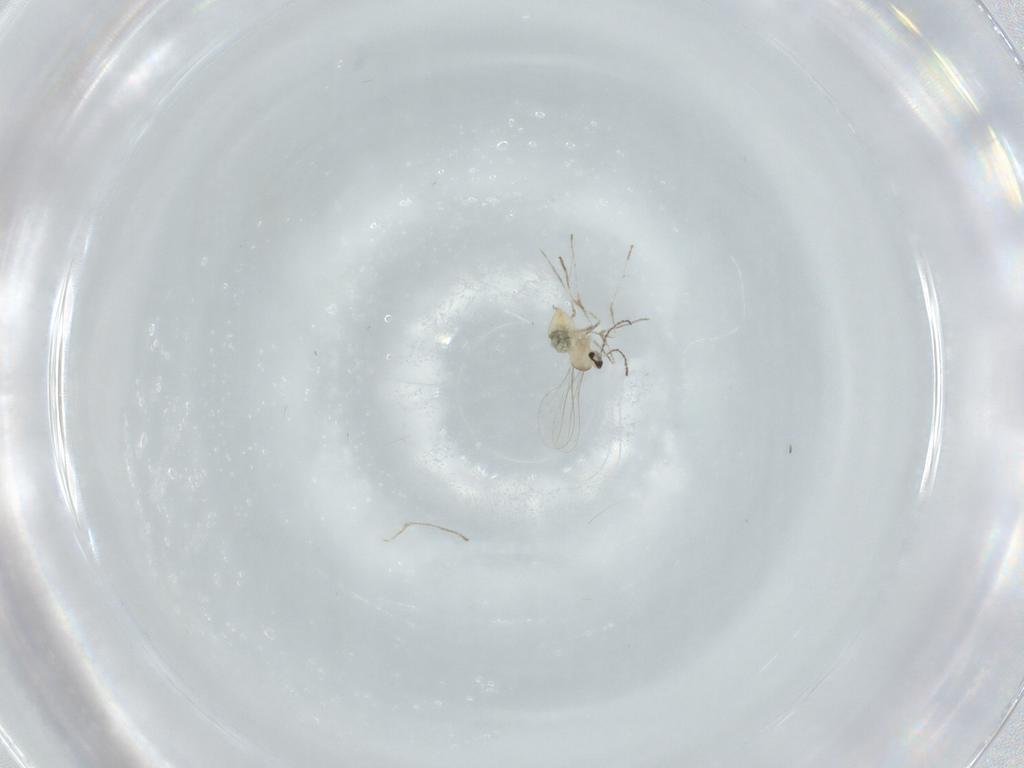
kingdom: Animalia
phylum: Arthropoda
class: Insecta
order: Diptera
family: Cecidomyiidae
